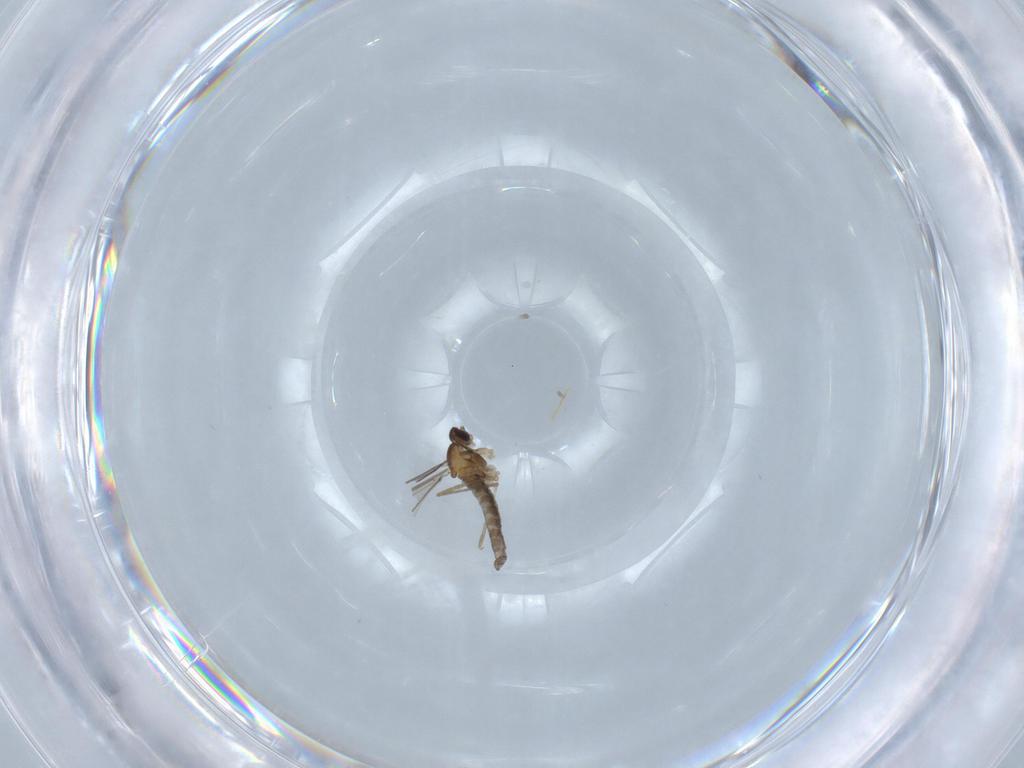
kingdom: Animalia
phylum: Arthropoda
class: Insecta
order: Diptera
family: Cecidomyiidae
